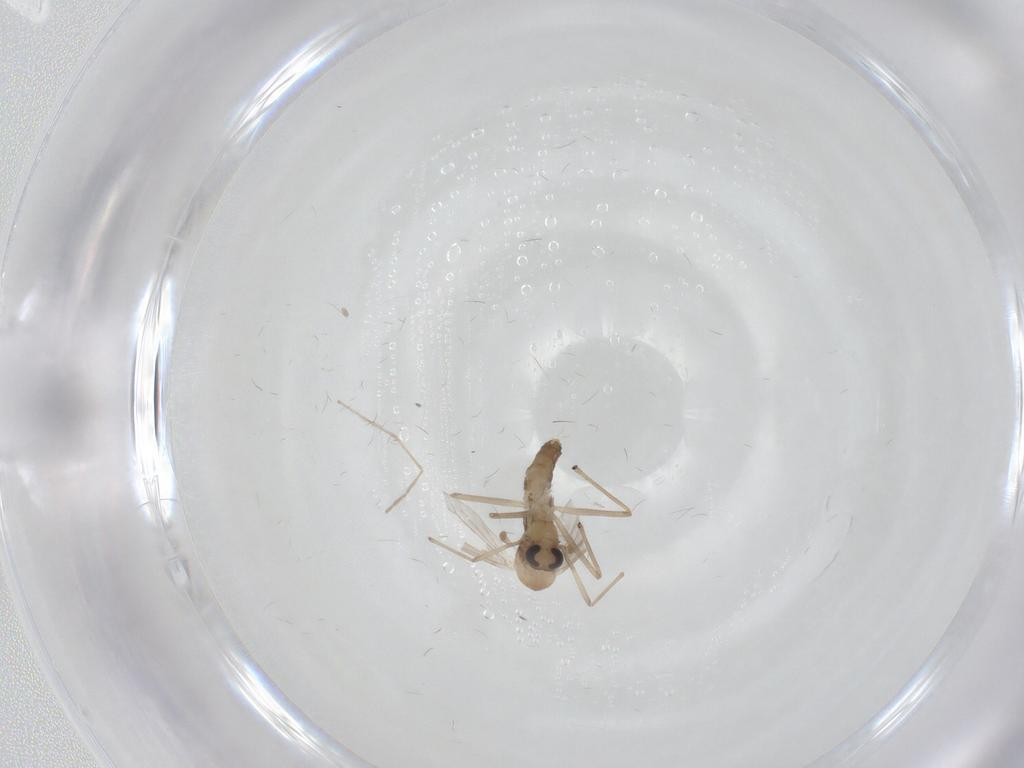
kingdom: Animalia
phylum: Arthropoda
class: Insecta
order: Diptera
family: Chironomidae
